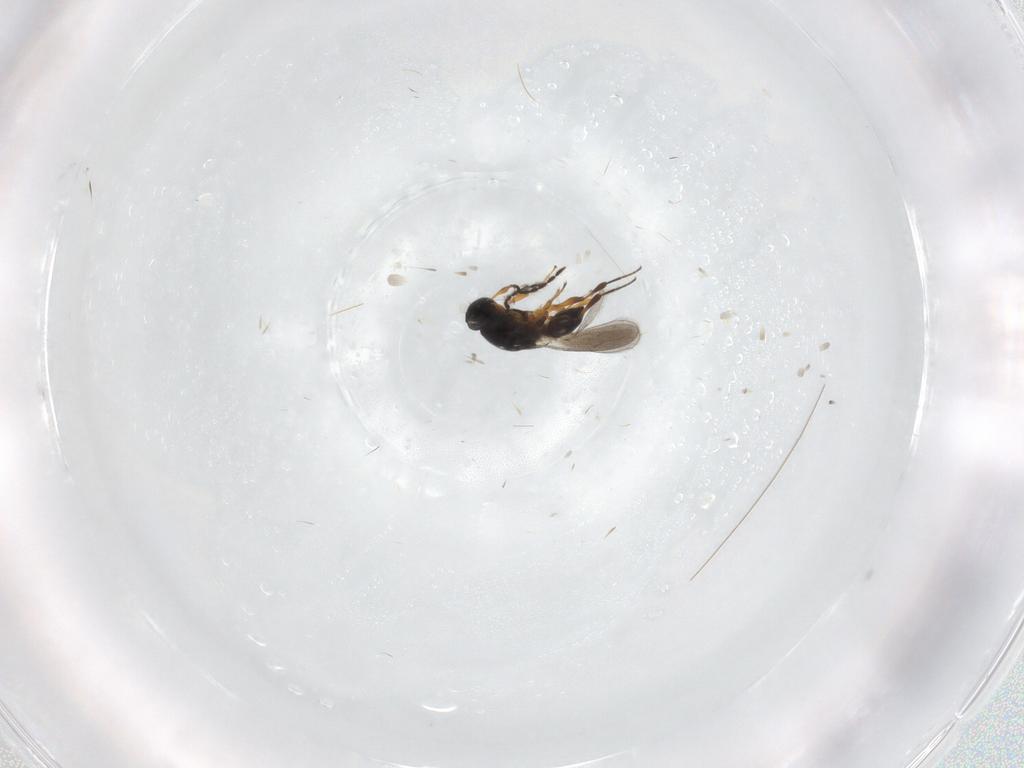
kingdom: Animalia
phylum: Arthropoda
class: Insecta
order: Hymenoptera
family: Platygastridae
